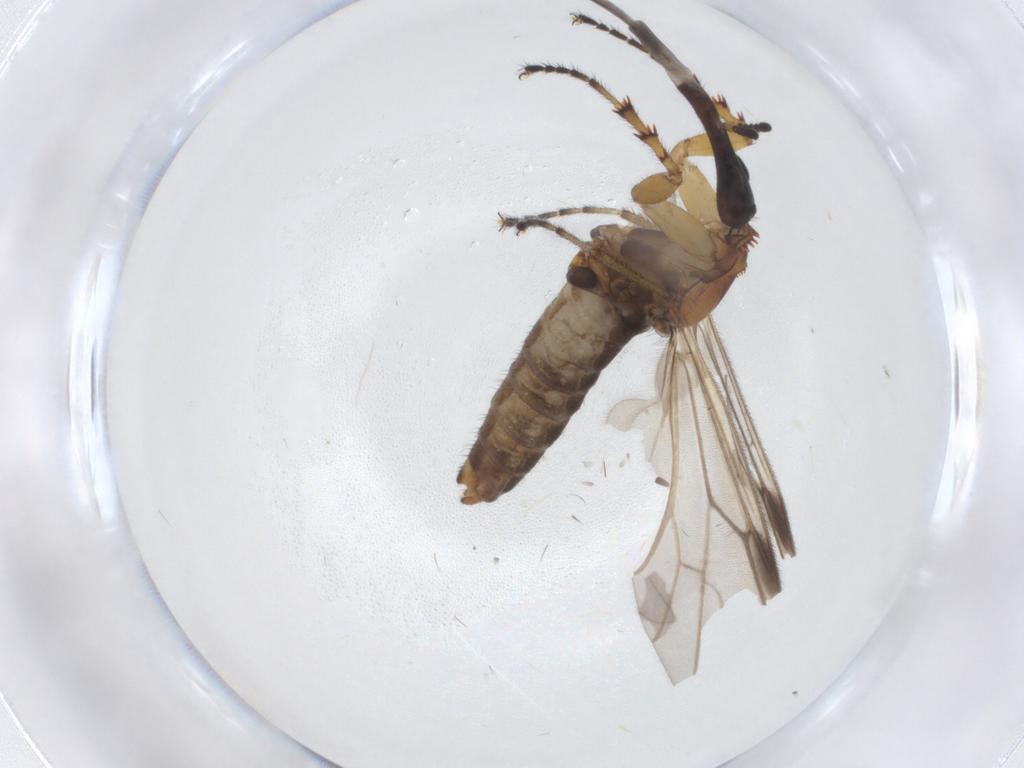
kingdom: Animalia
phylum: Arthropoda
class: Insecta
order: Diptera
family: Bibionidae
